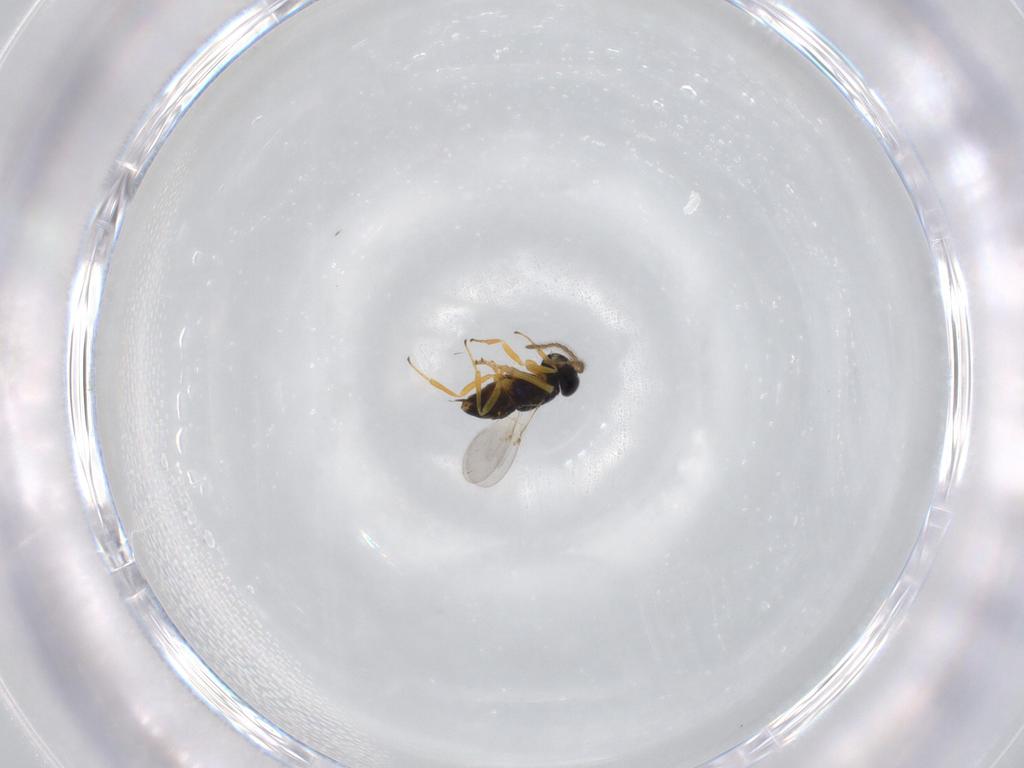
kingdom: Animalia
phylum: Arthropoda
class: Insecta
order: Hymenoptera
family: Encyrtidae
